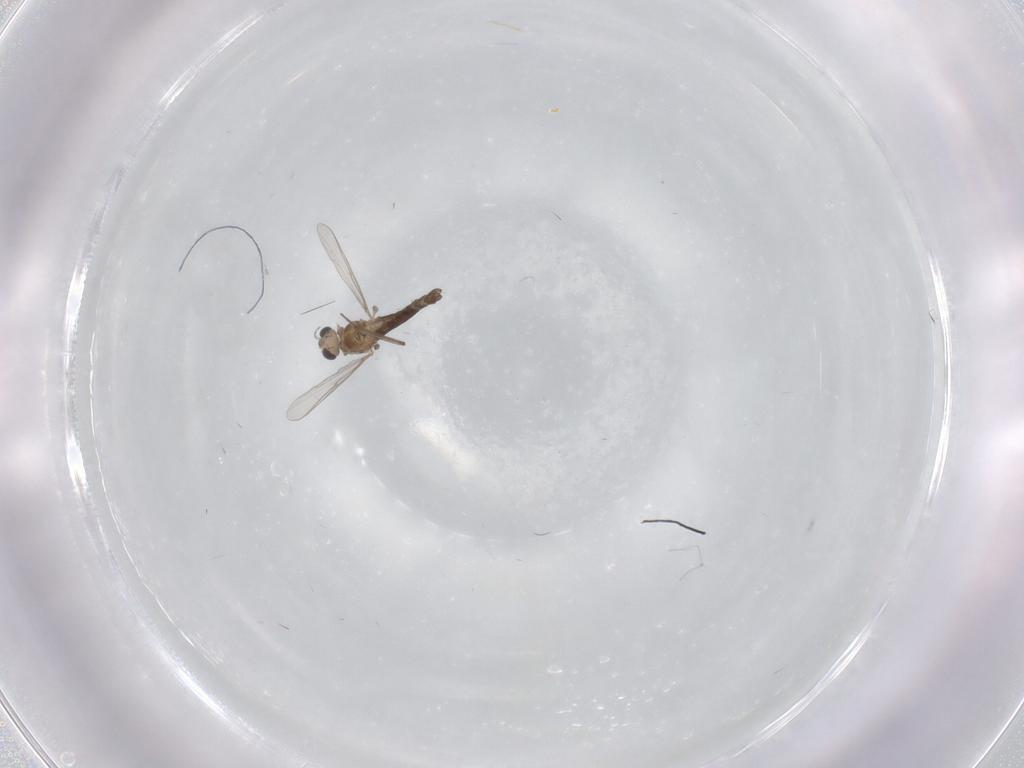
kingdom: Animalia
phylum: Arthropoda
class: Insecta
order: Diptera
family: Chironomidae
